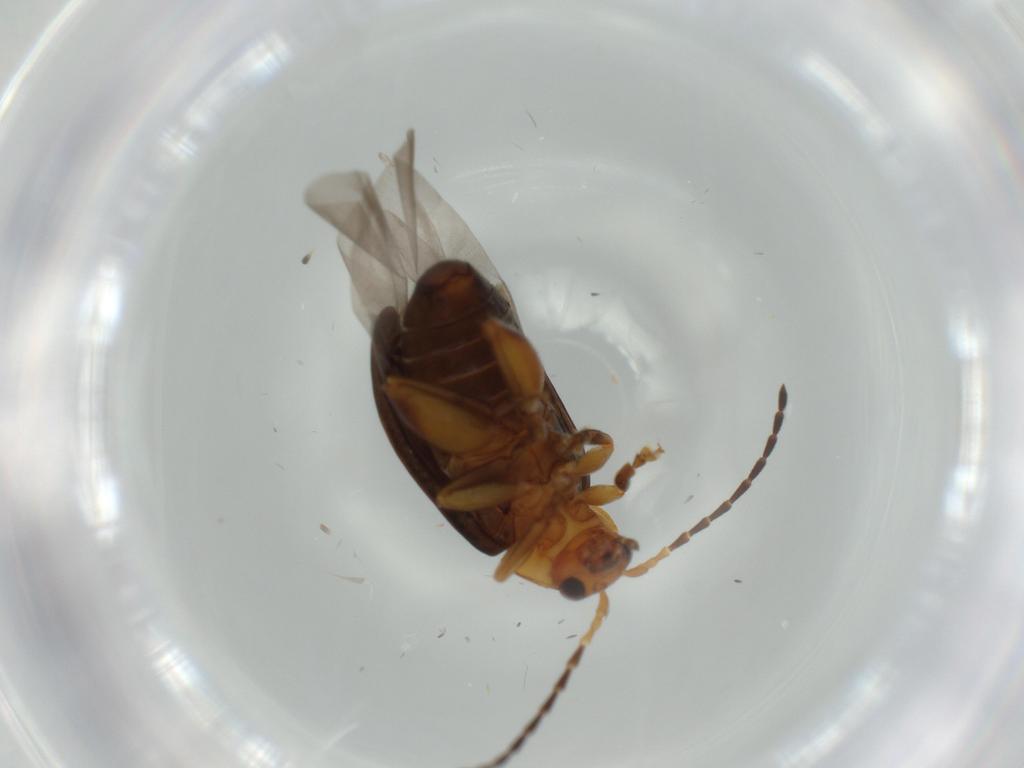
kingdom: Animalia
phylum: Arthropoda
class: Insecta
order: Coleoptera
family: Chrysomelidae
